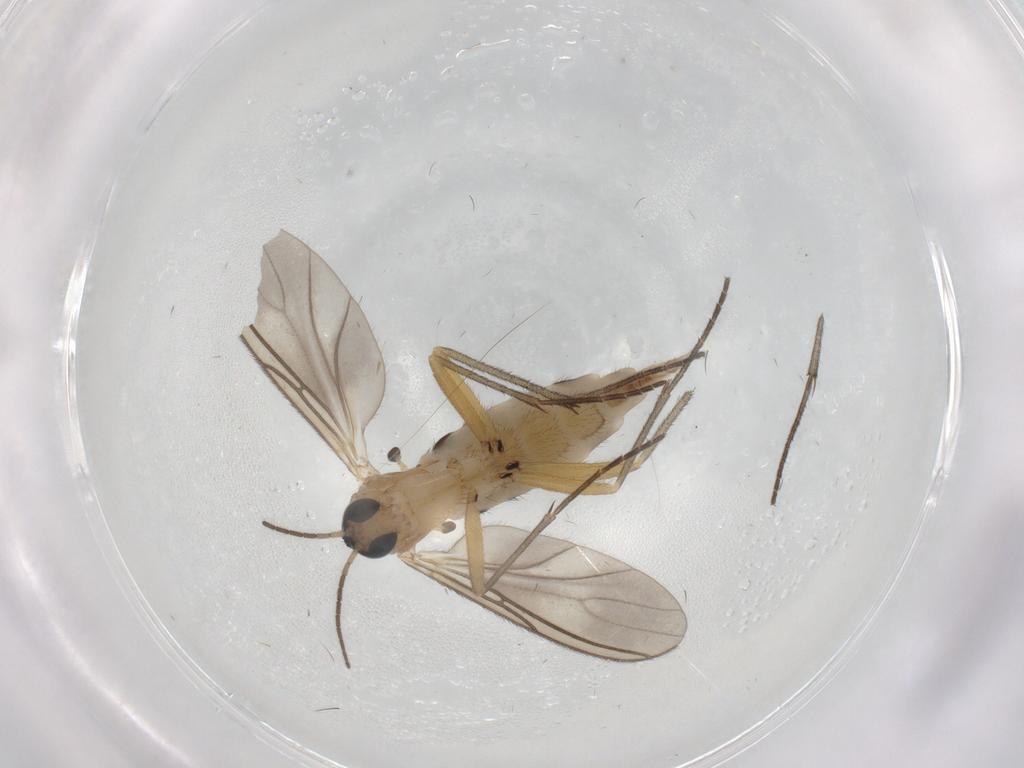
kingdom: Animalia
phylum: Arthropoda
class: Insecta
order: Diptera
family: Sciaridae
